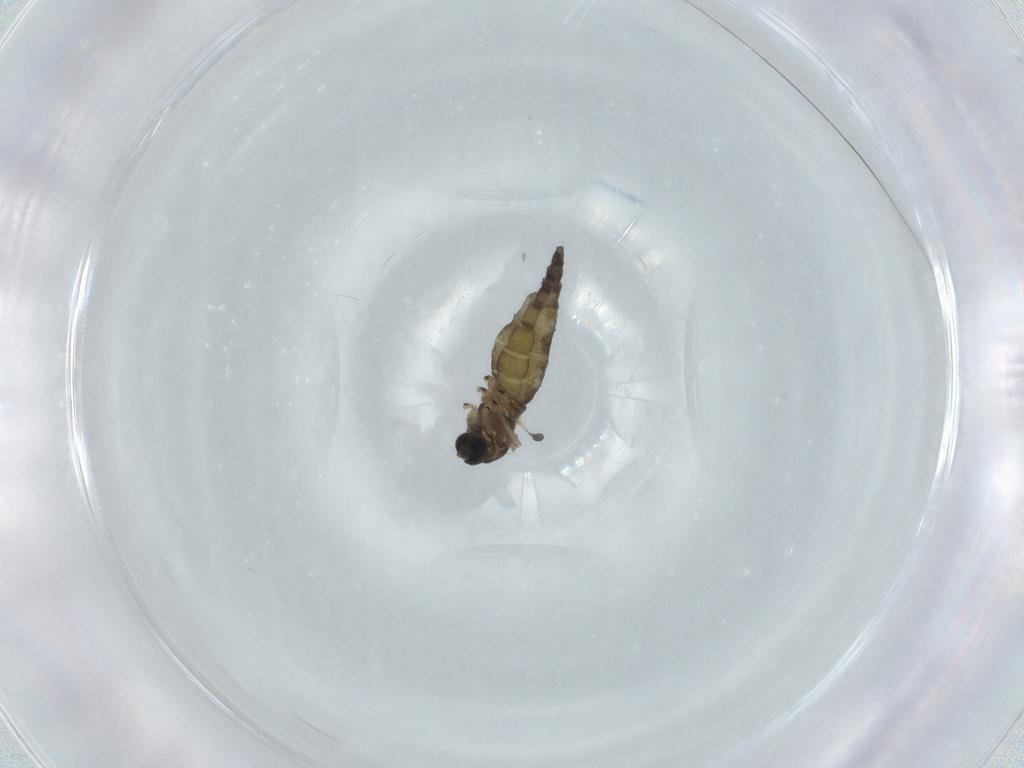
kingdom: Animalia
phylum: Arthropoda
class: Insecta
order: Diptera
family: Sciaridae
